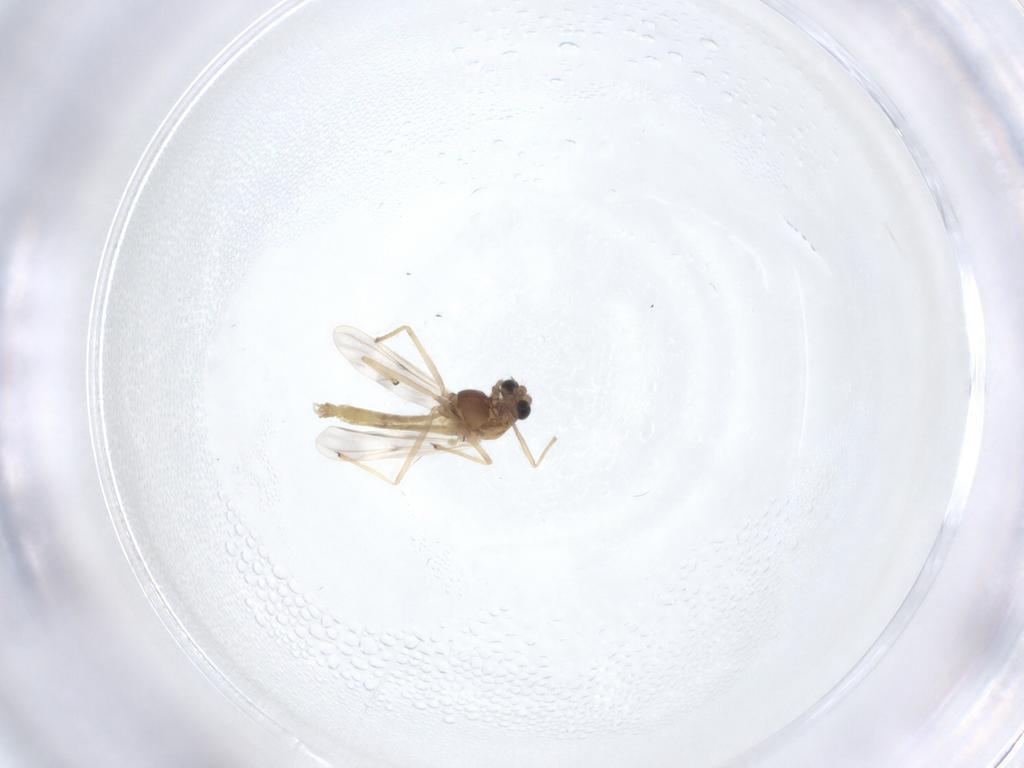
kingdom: Animalia
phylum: Arthropoda
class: Insecta
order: Diptera
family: Chironomidae
